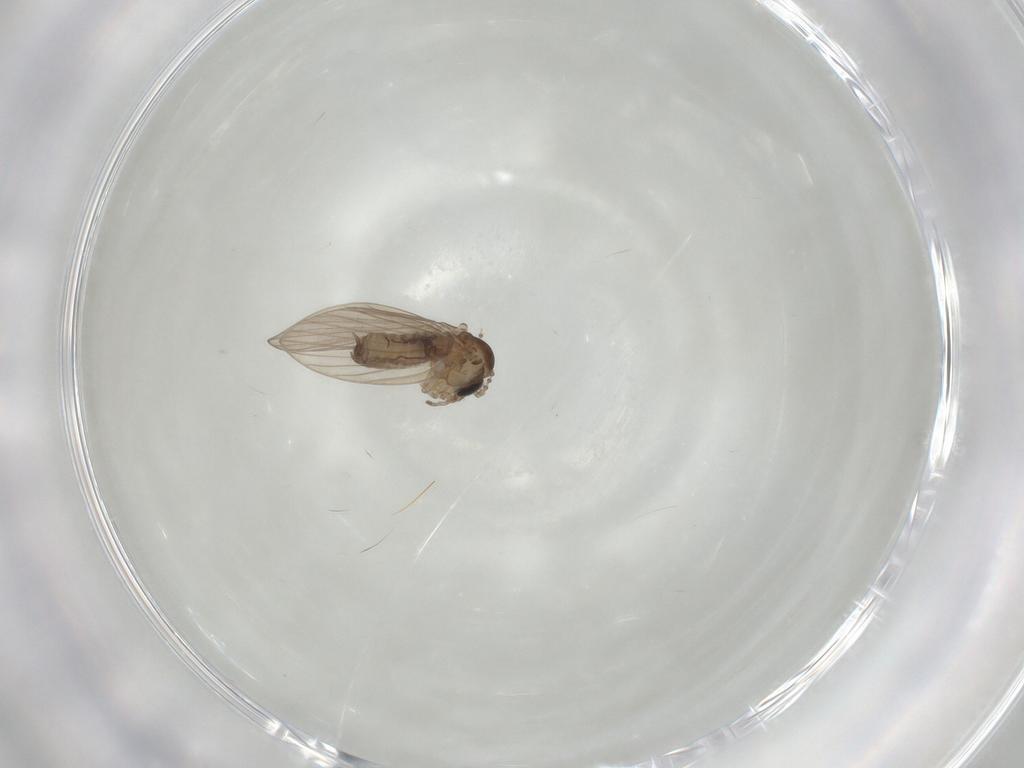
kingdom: Animalia
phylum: Arthropoda
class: Insecta
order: Diptera
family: Psychodidae
